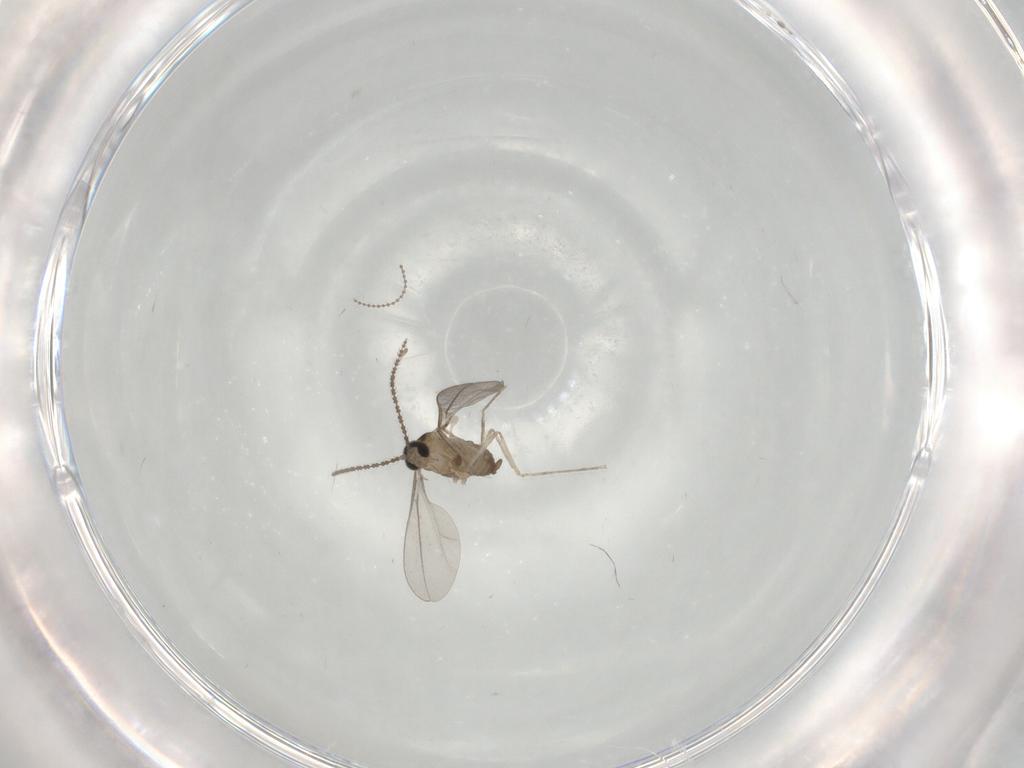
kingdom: Animalia
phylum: Arthropoda
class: Insecta
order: Diptera
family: Cecidomyiidae
